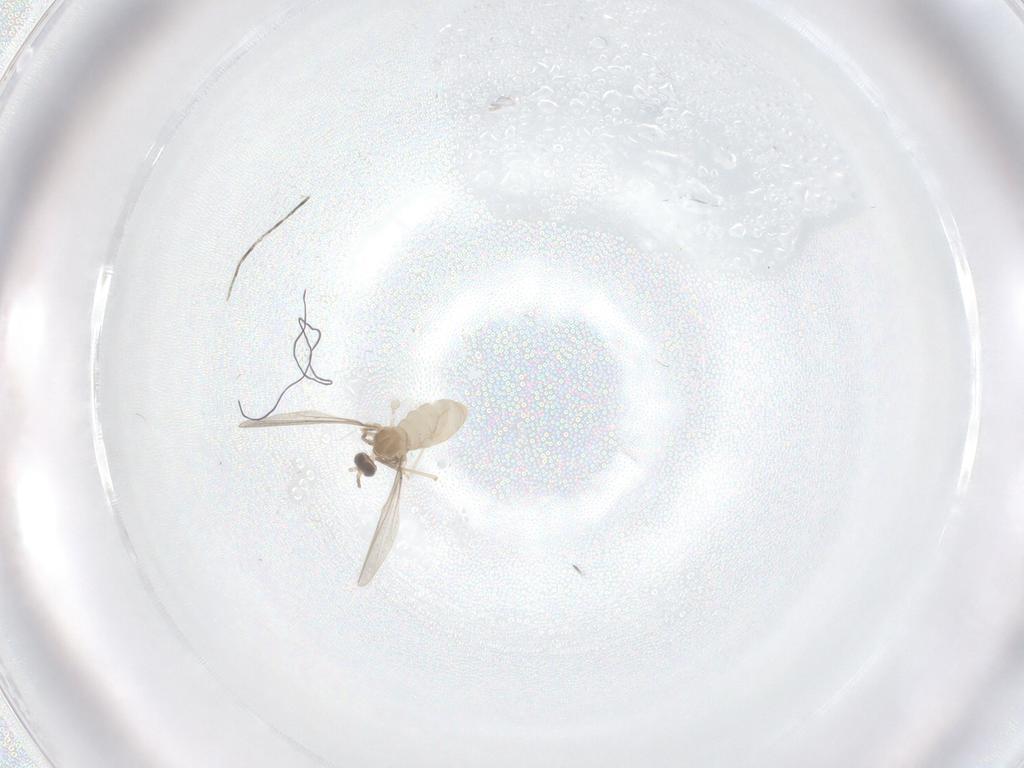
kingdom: Animalia
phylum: Arthropoda
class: Insecta
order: Diptera
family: Cecidomyiidae
